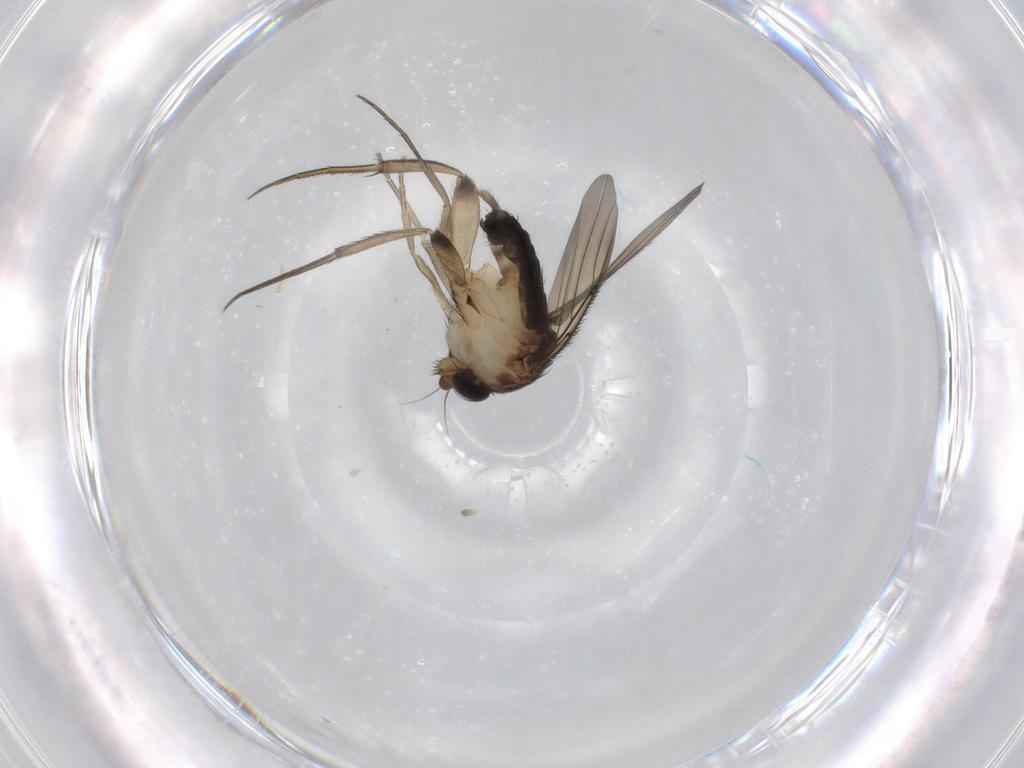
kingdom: Animalia
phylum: Arthropoda
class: Insecta
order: Diptera
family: Phoridae
